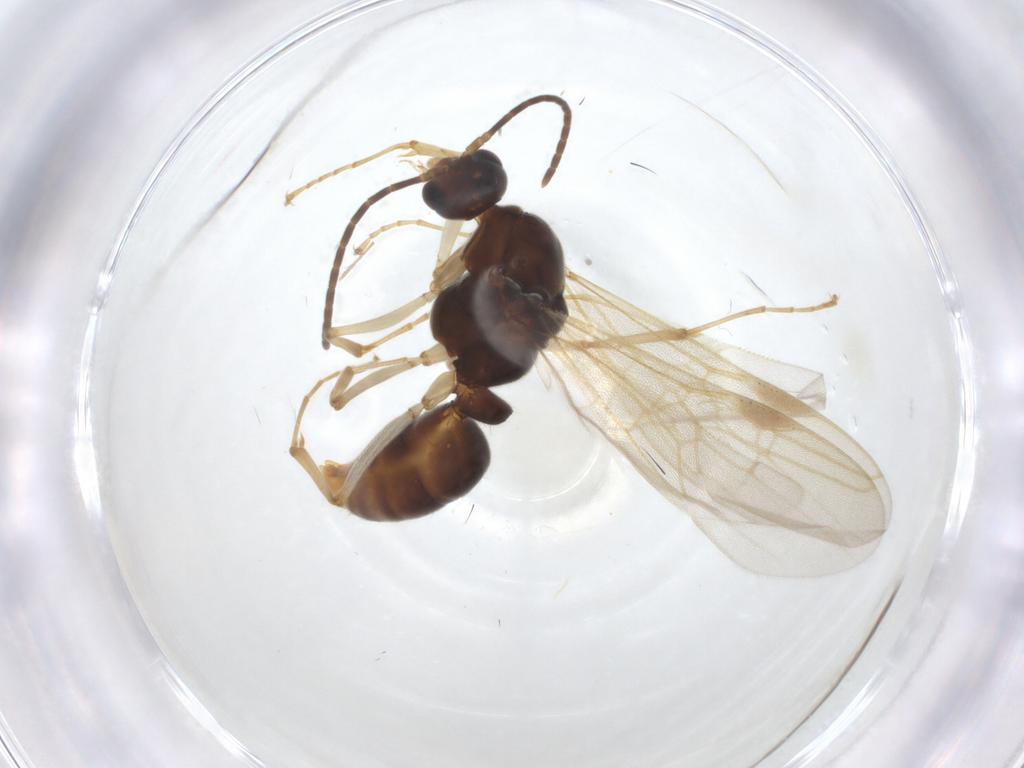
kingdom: Animalia
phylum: Arthropoda
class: Insecta
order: Hymenoptera
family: Formicidae
